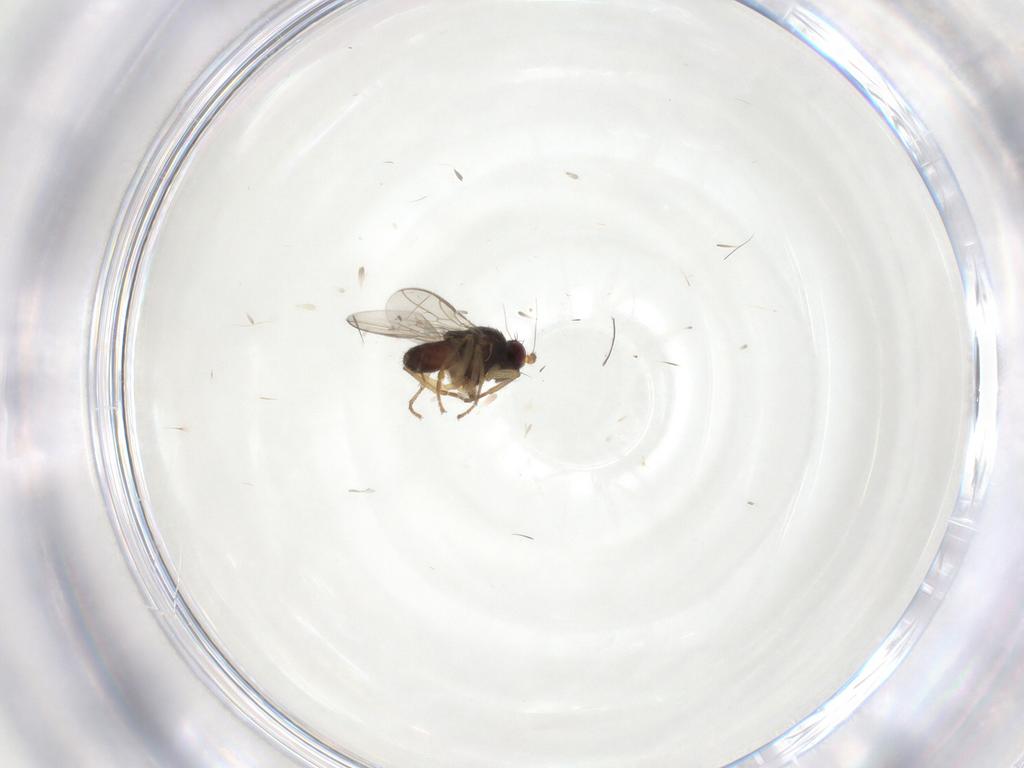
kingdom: Animalia
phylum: Arthropoda
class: Insecta
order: Diptera
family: Sphaeroceridae
